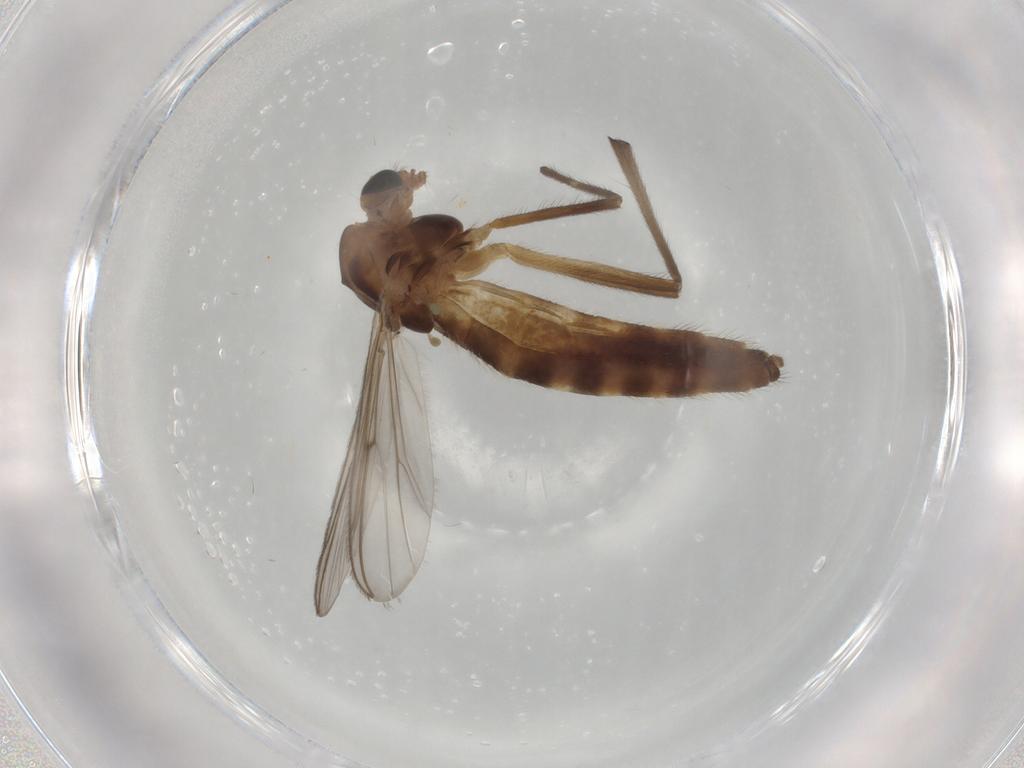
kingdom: Animalia
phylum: Arthropoda
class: Insecta
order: Diptera
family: Chironomidae
